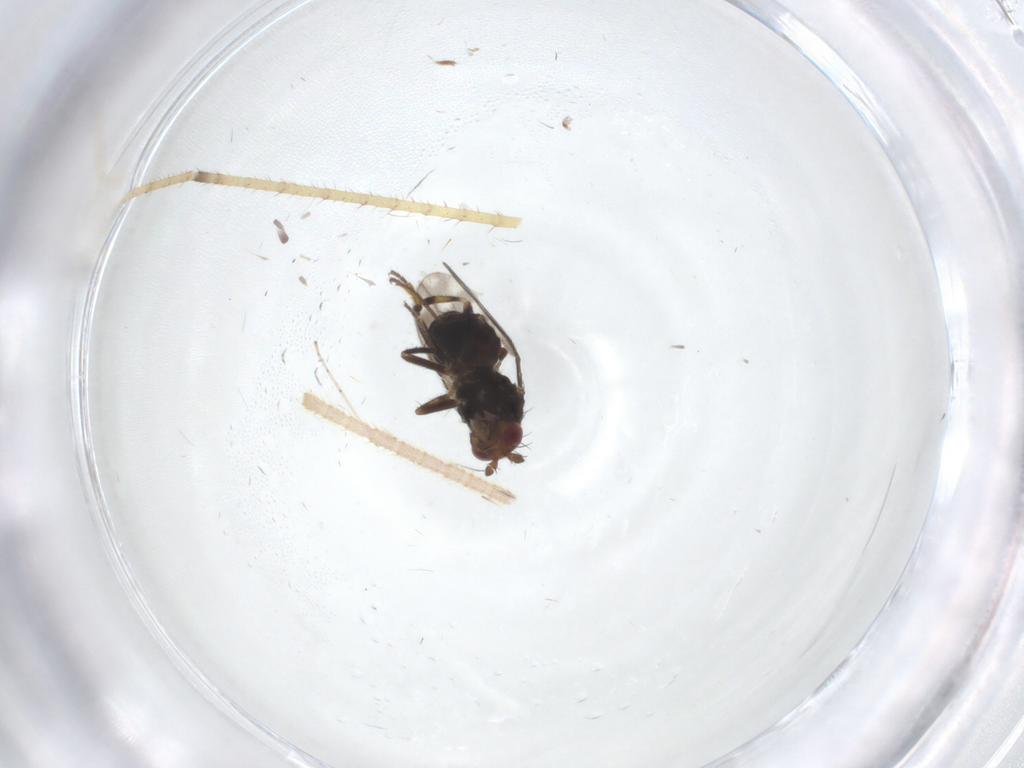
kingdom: Animalia
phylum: Arthropoda
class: Insecta
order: Diptera
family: Sphaeroceridae
